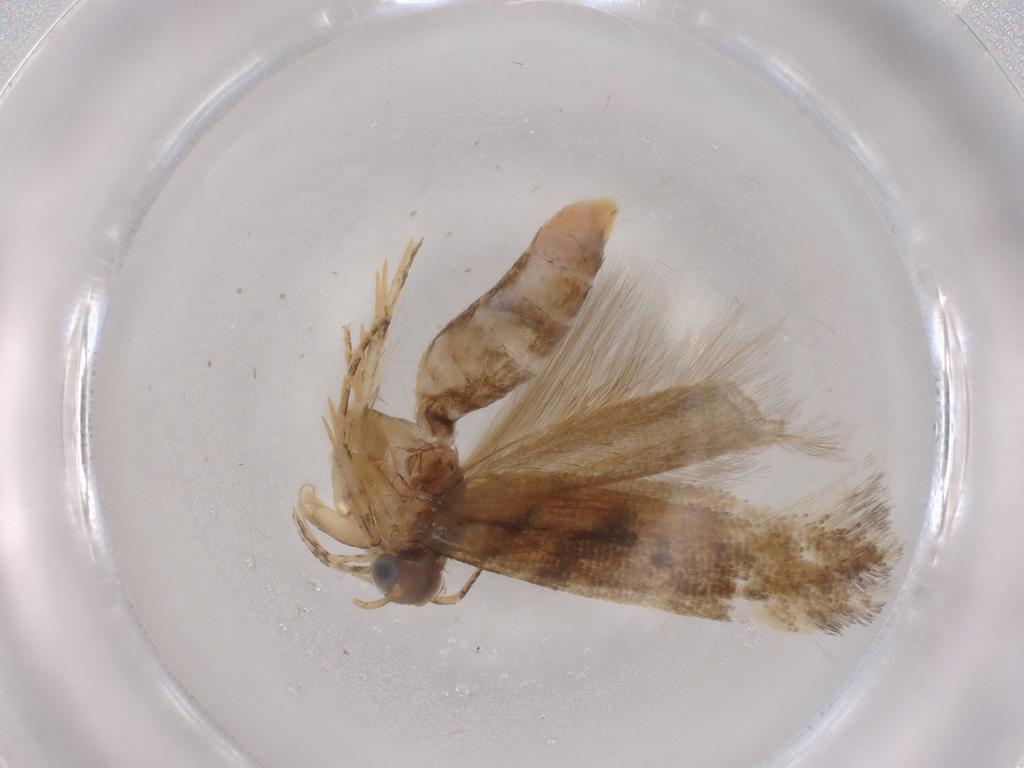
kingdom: Animalia
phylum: Arthropoda
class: Insecta
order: Lepidoptera
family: Gelechiidae
